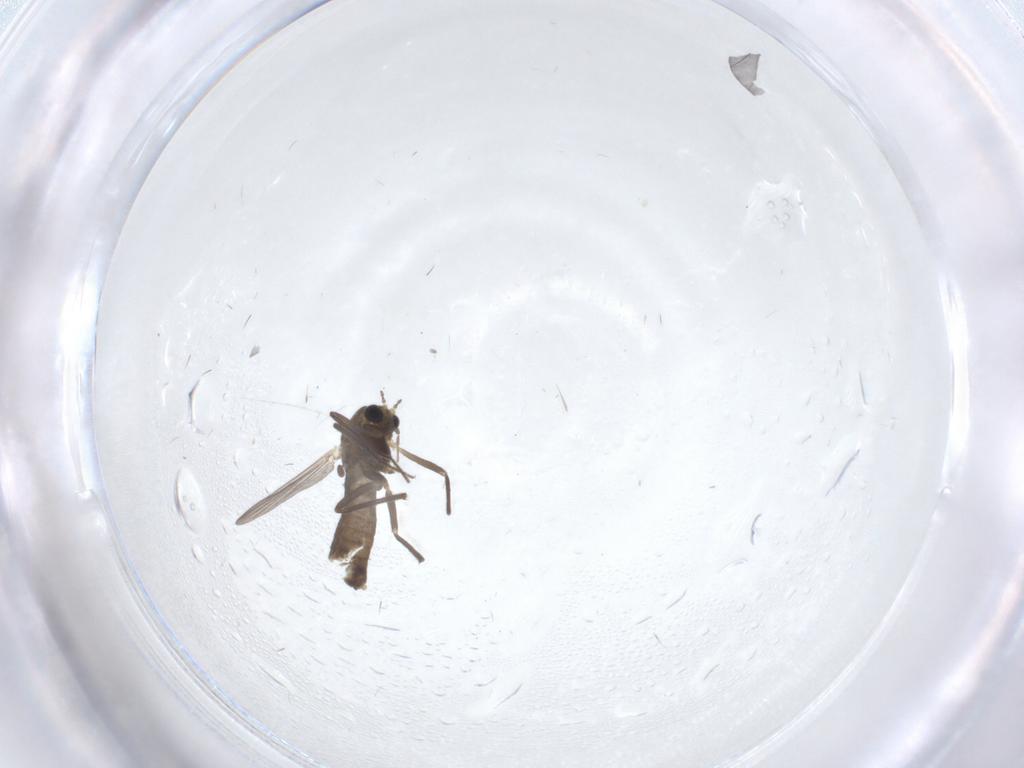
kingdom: Animalia
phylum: Arthropoda
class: Insecta
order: Diptera
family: Chironomidae
